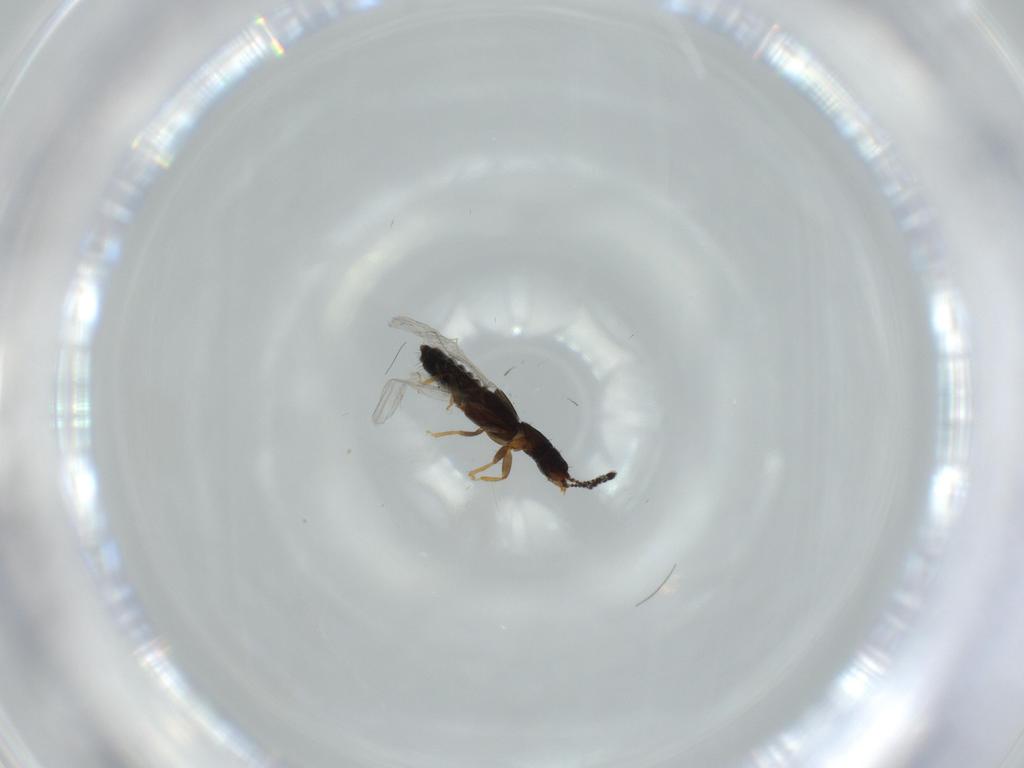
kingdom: Animalia
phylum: Arthropoda
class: Insecta
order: Coleoptera
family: Staphylinidae
